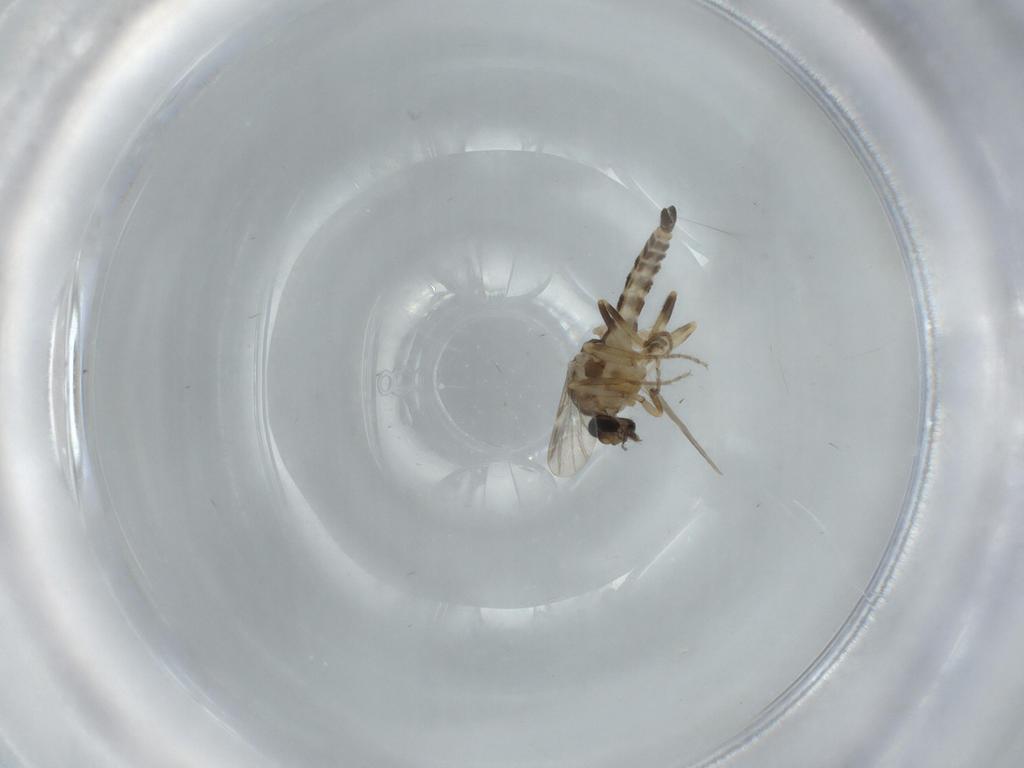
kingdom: Animalia
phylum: Arthropoda
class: Insecta
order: Diptera
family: Ceratopogonidae
